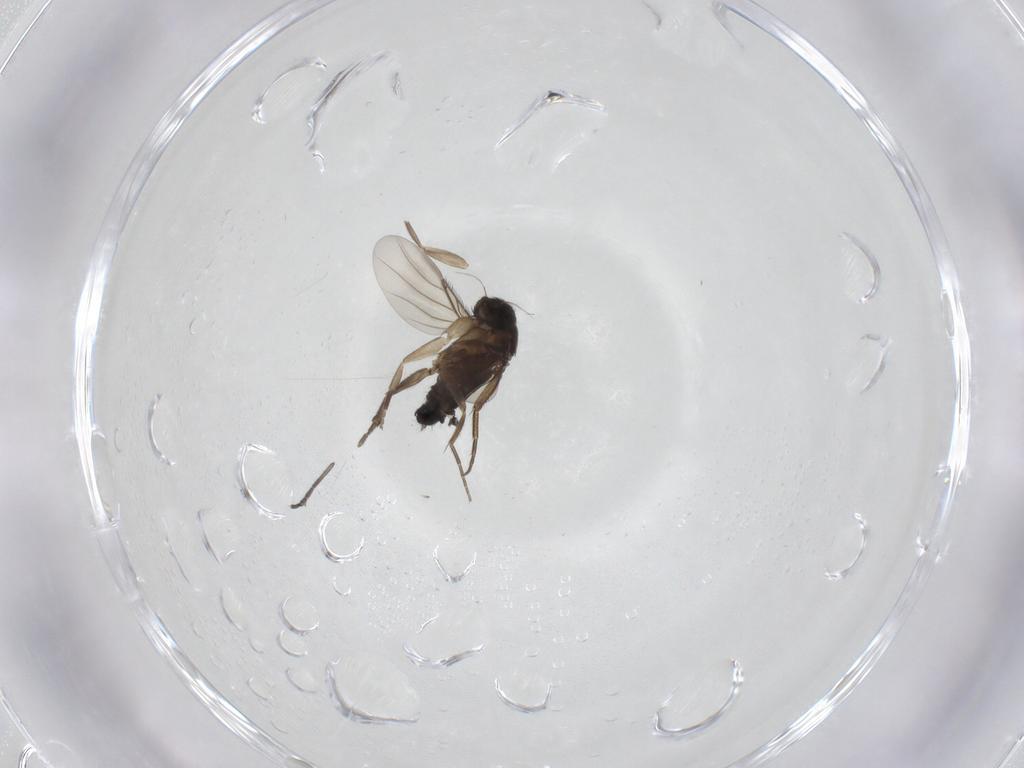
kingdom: Animalia
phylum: Arthropoda
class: Insecta
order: Diptera
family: Phoridae
